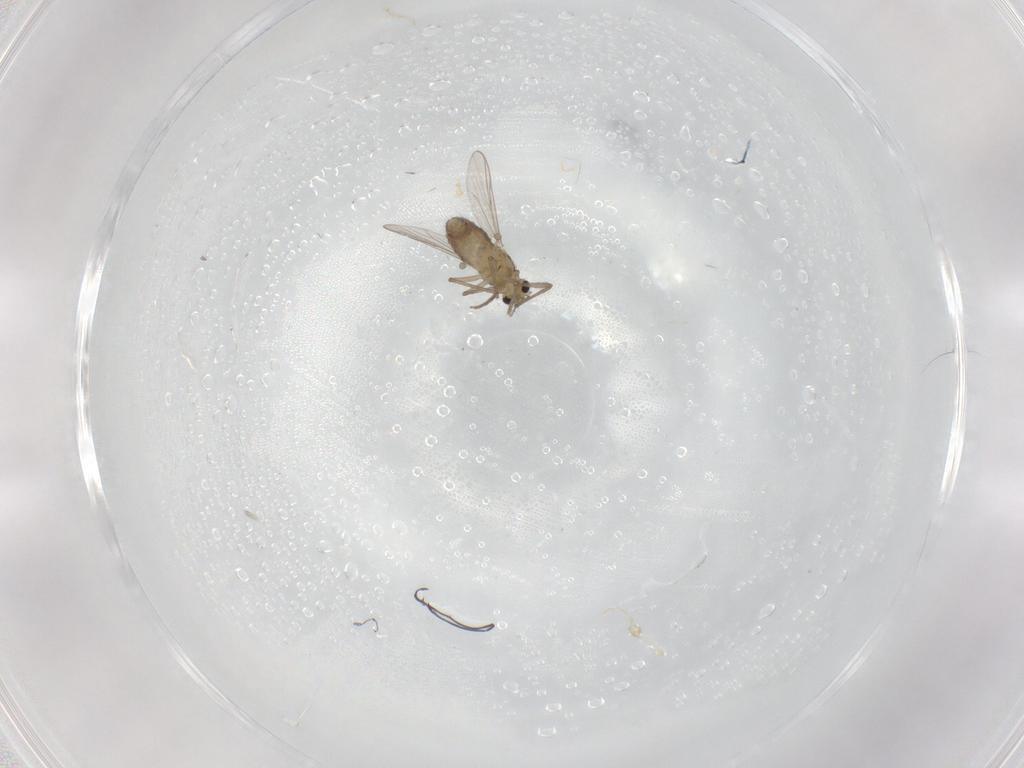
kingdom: Animalia
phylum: Arthropoda
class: Insecta
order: Diptera
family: Chironomidae
